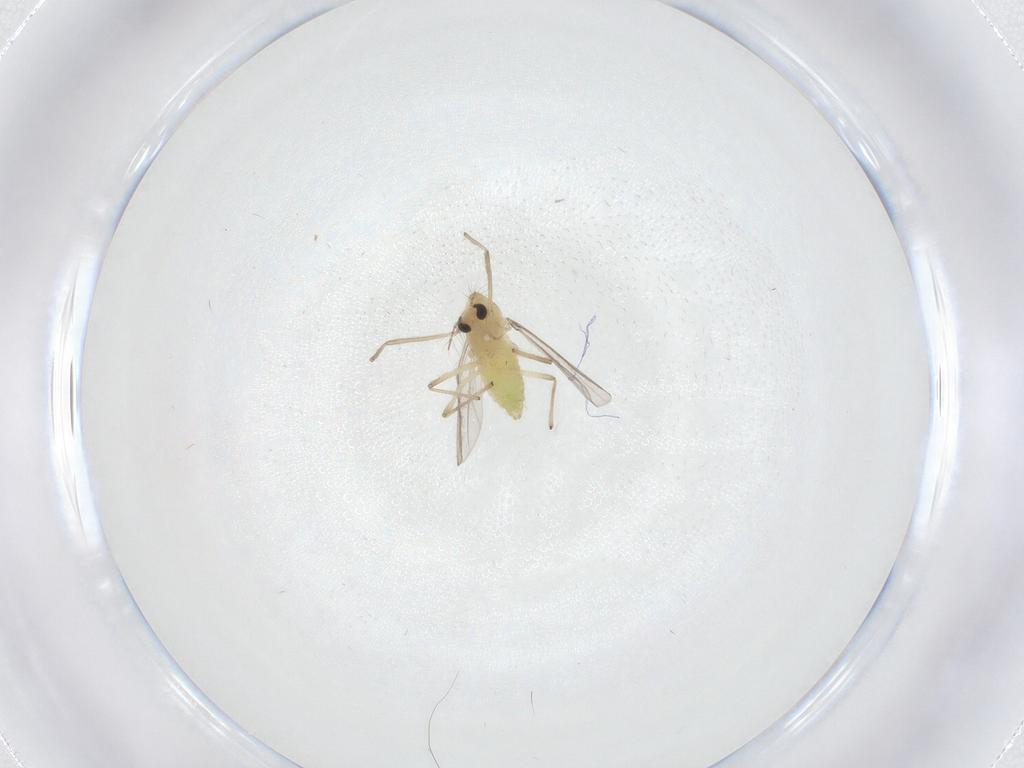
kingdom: Animalia
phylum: Arthropoda
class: Insecta
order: Diptera
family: Chironomidae
